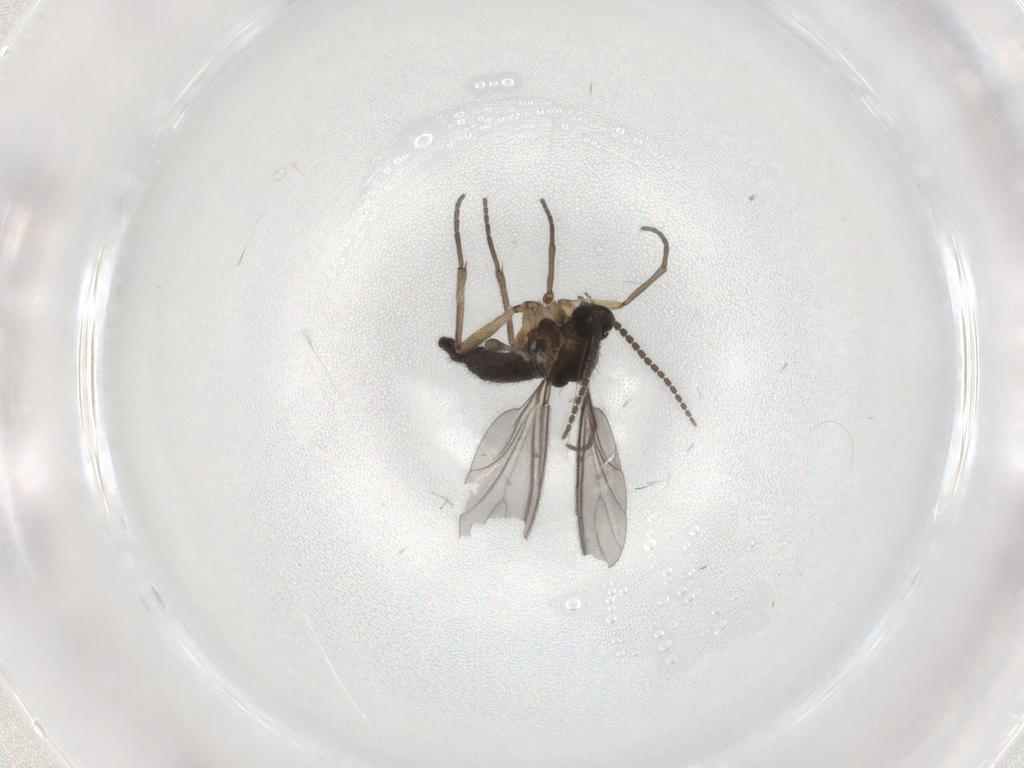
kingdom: Animalia
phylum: Arthropoda
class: Insecta
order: Diptera
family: Sciaridae
